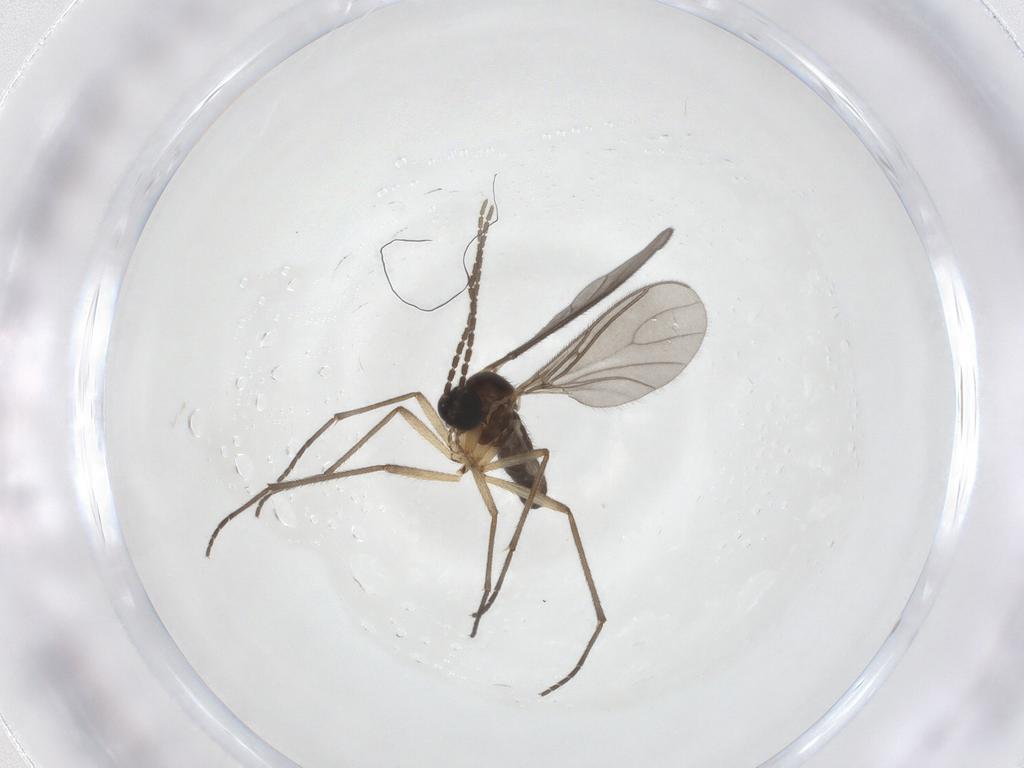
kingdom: Animalia
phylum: Arthropoda
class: Insecta
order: Diptera
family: Sciaridae
